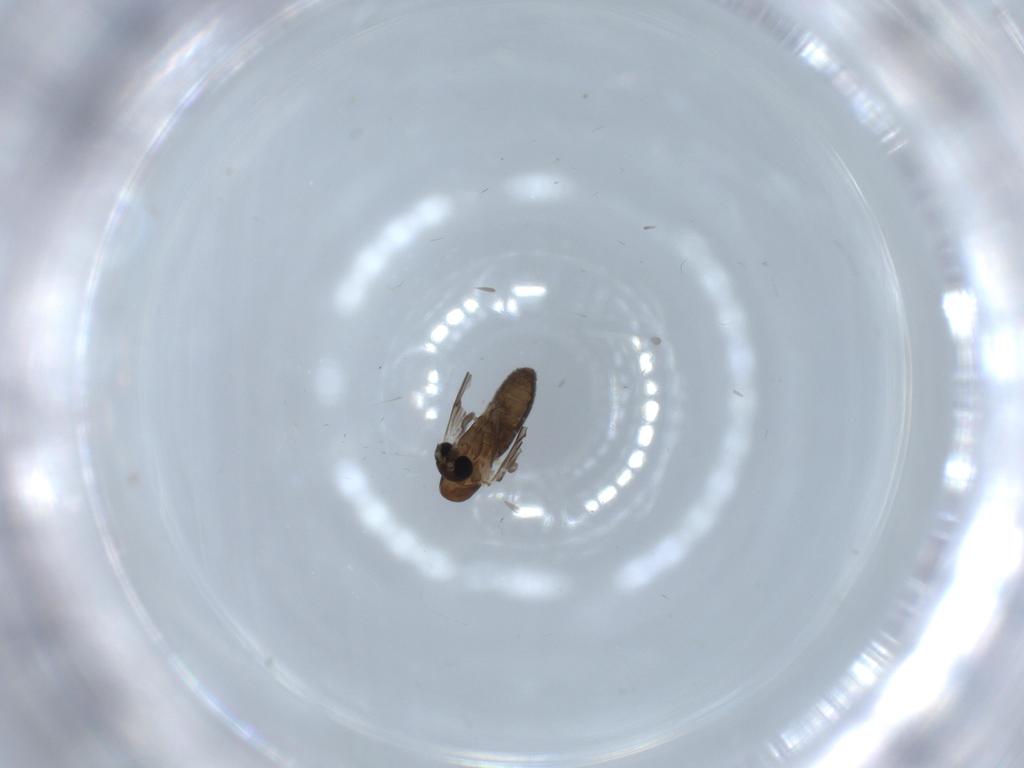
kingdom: Animalia
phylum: Arthropoda
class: Insecta
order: Diptera
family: Psychodidae
